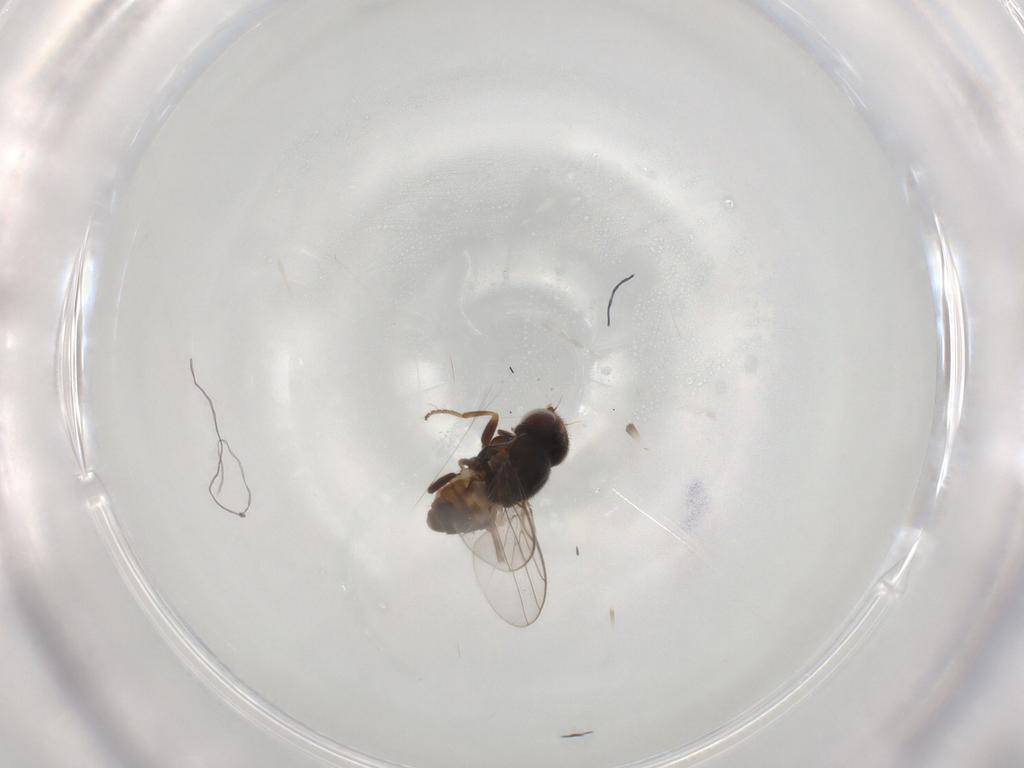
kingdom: Animalia
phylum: Arthropoda
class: Insecta
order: Diptera
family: Chloropidae
